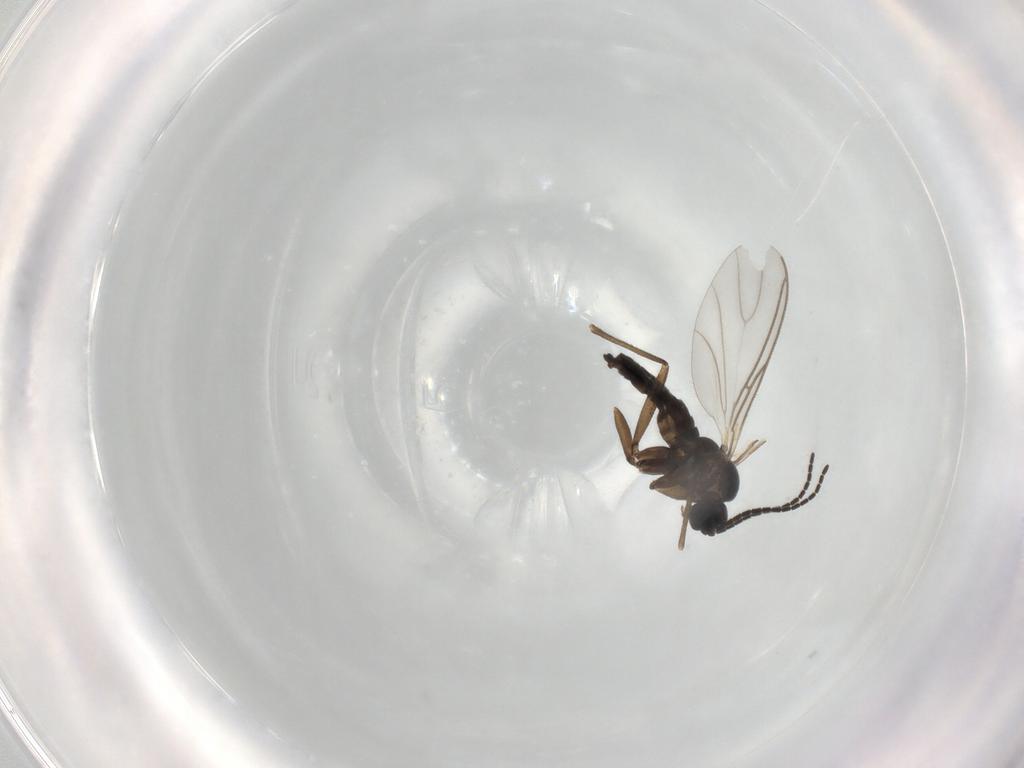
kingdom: Animalia
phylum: Arthropoda
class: Insecta
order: Diptera
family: Sciaridae
